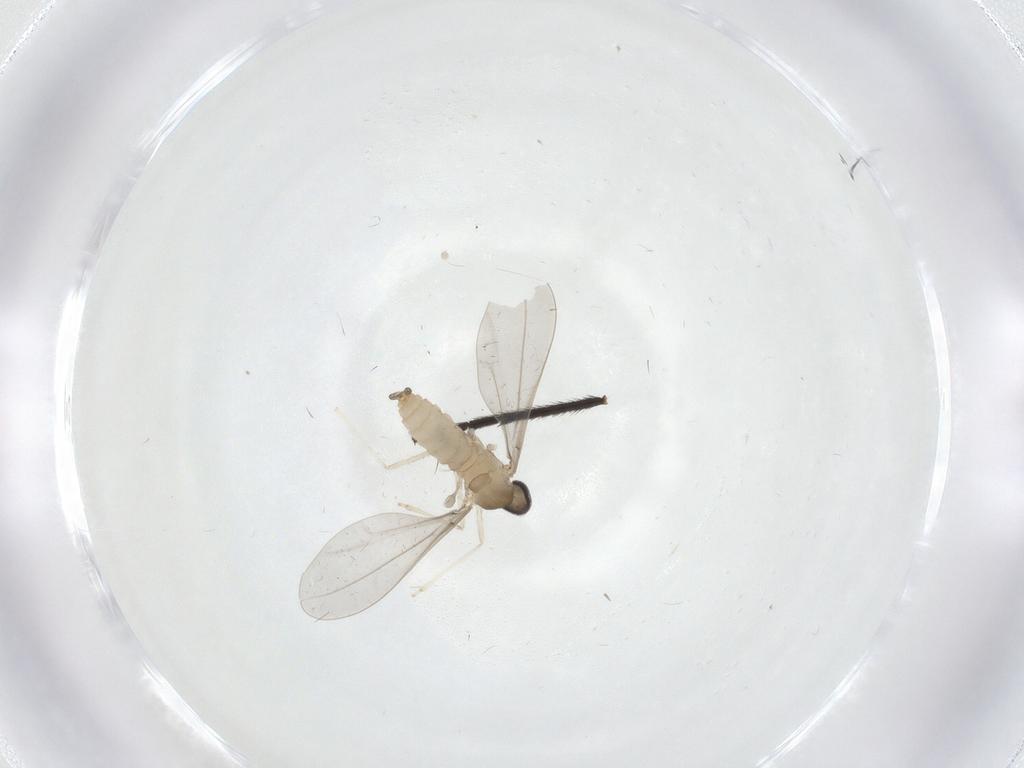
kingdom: Animalia
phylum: Arthropoda
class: Insecta
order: Diptera
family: Cecidomyiidae
